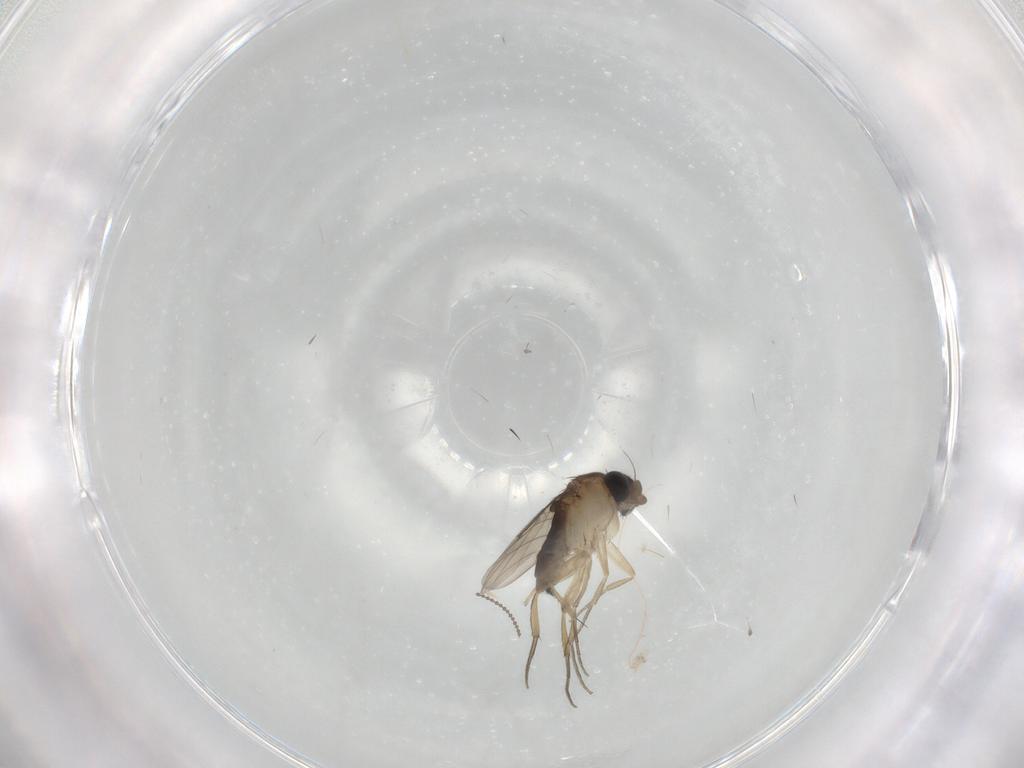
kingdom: Animalia
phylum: Arthropoda
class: Insecta
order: Diptera
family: Phoridae
